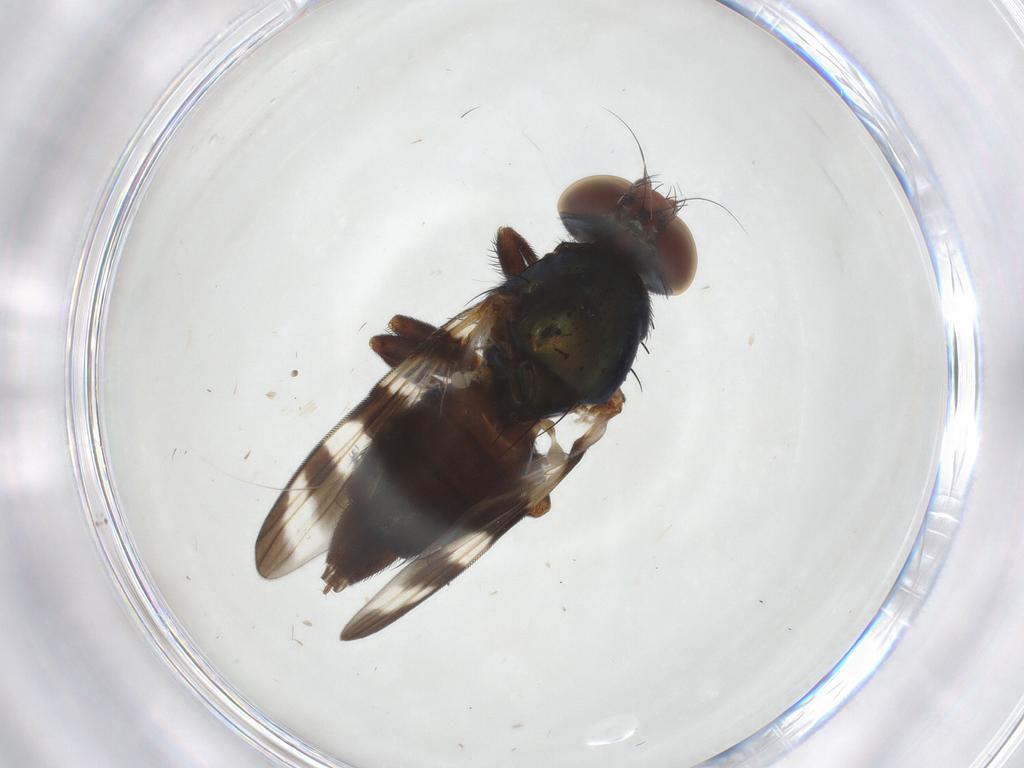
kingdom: Animalia
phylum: Arthropoda
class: Insecta
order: Diptera
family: Ulidiidae
